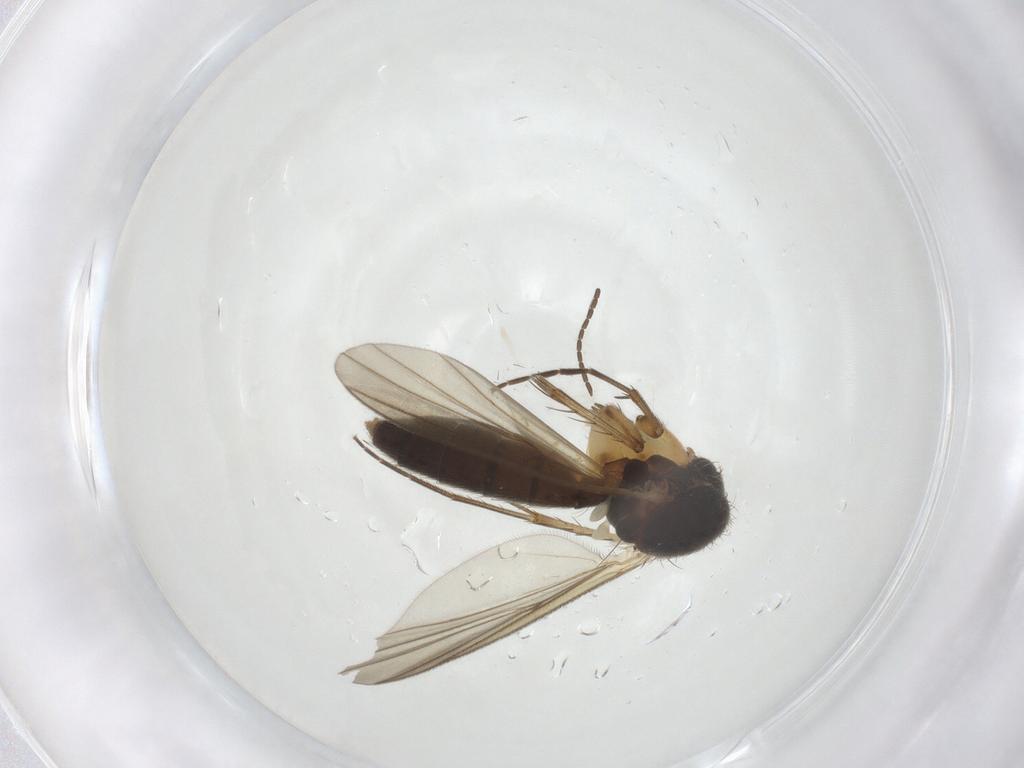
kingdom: Animalia
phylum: Arthropoda
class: Insecta
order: Diptera
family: Mycetophilidae
